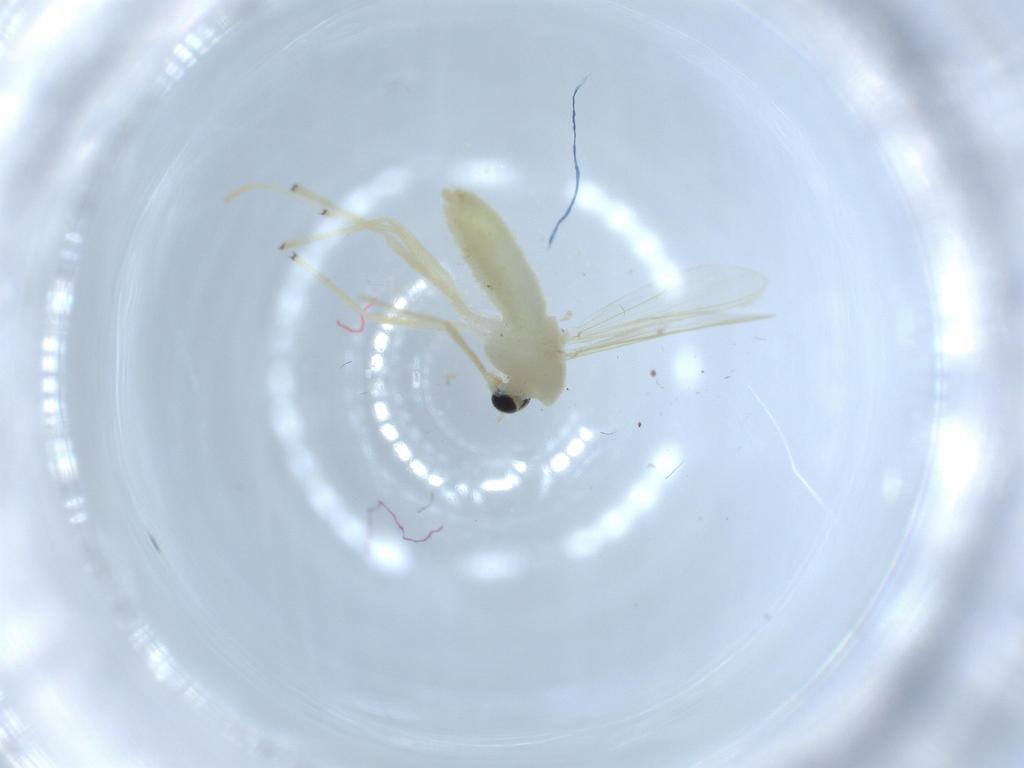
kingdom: Animalia
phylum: Arthropoda
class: Insecta
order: Diptera
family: Chironomidae
